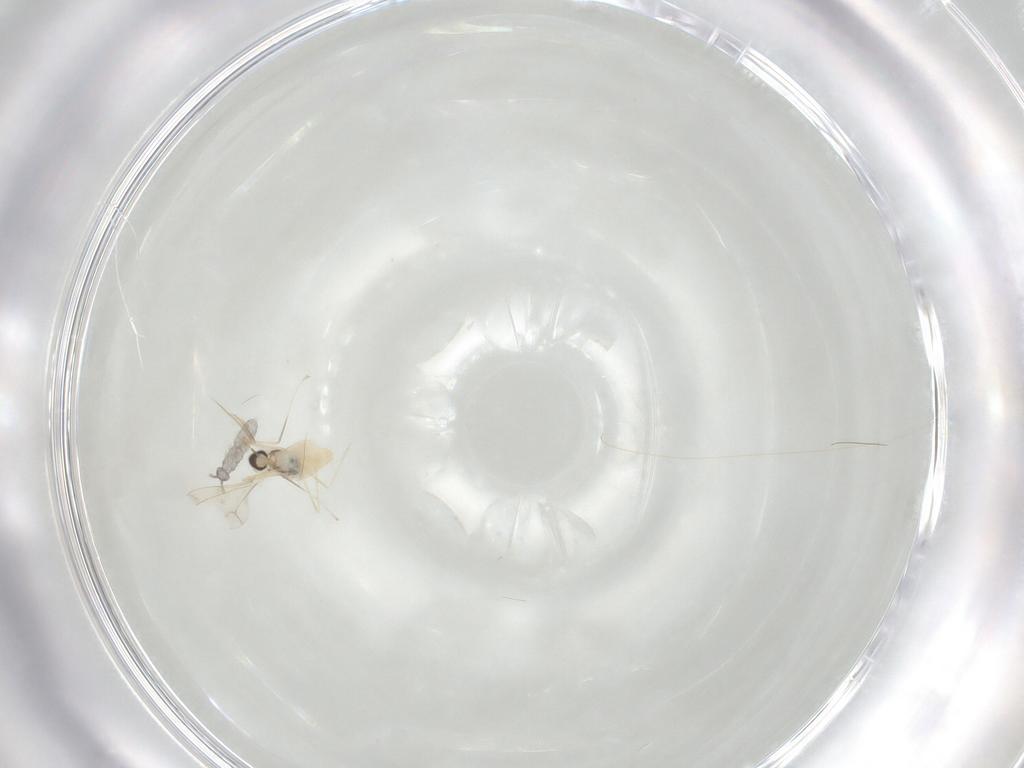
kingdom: Animalia
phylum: Arthropoda
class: Insecta
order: Diptera
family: Cecidomyiidae
